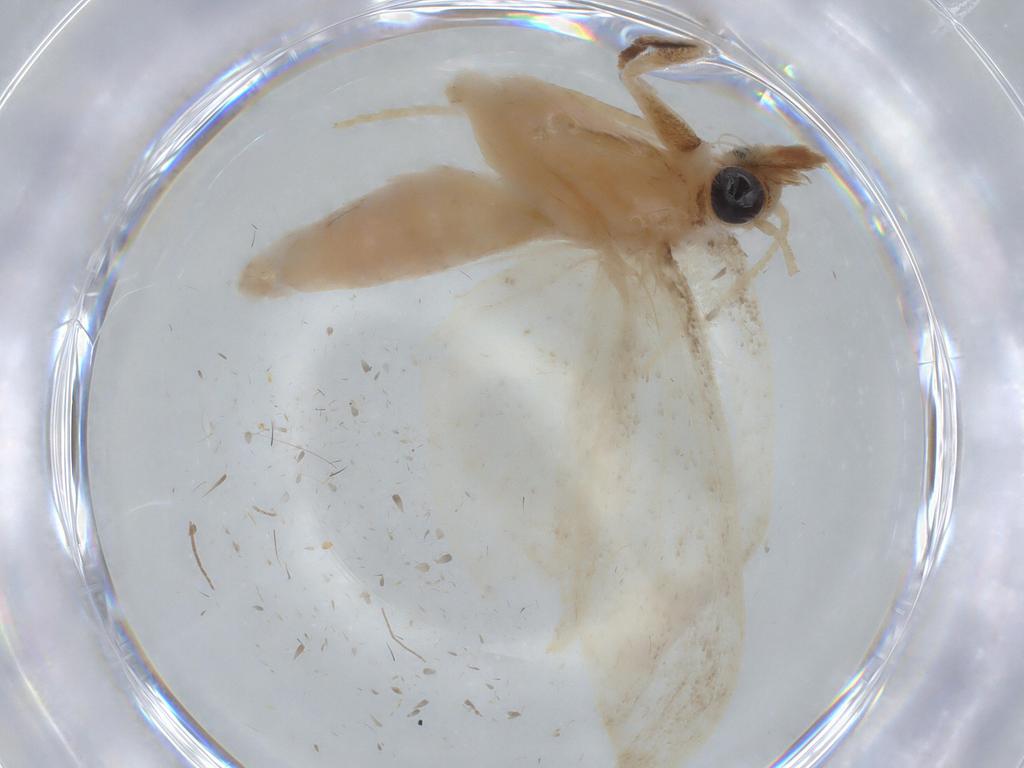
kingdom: Animalia
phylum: Arthropoda
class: Insecta
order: Lepidoptera
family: Crambidae
